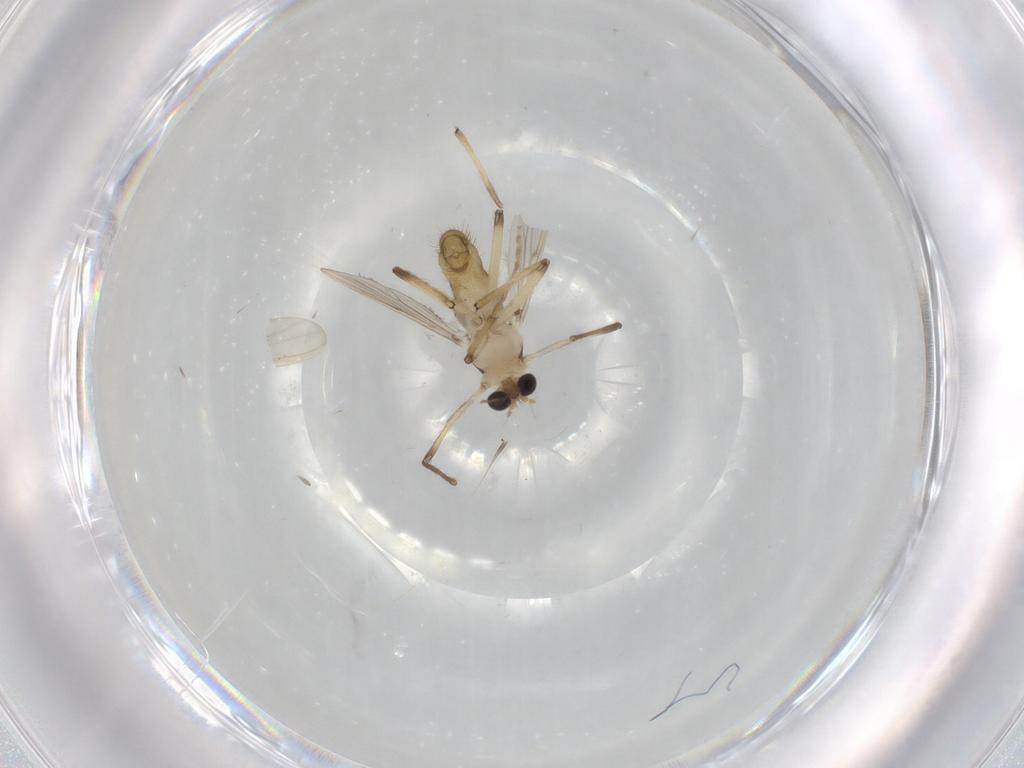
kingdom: Animalia
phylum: Arthropoda
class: Insecta
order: Diptera
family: Chironomidae
